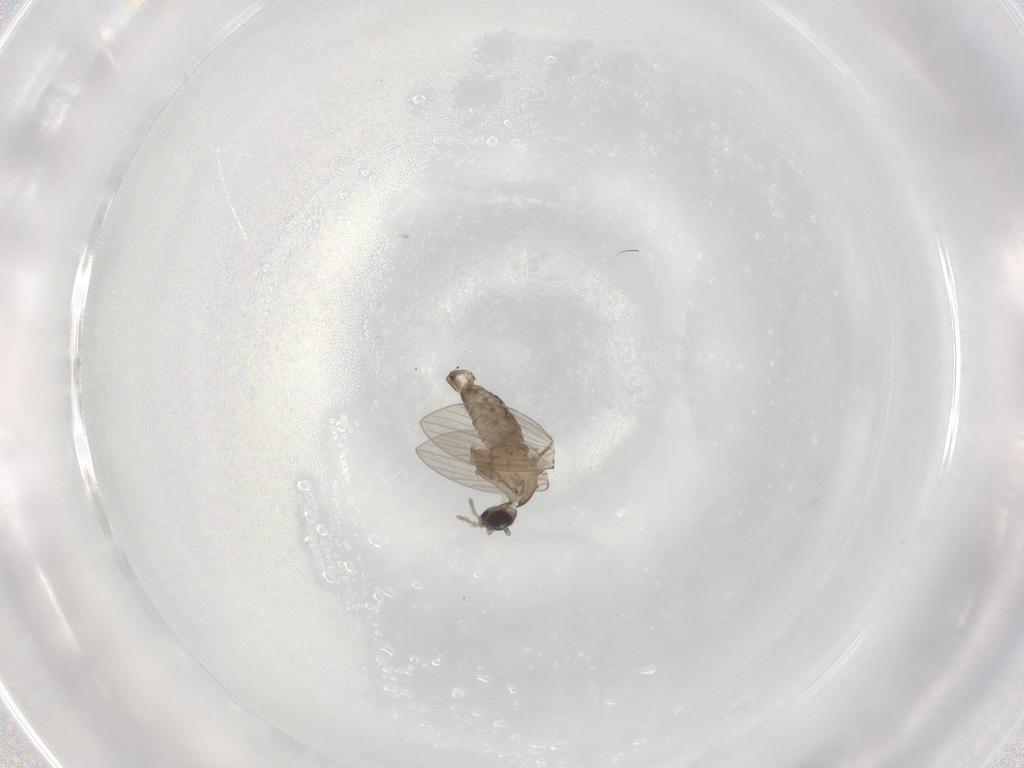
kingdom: Animalia
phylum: Arthropoda
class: Insecta
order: Diptera
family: Psychodidae
